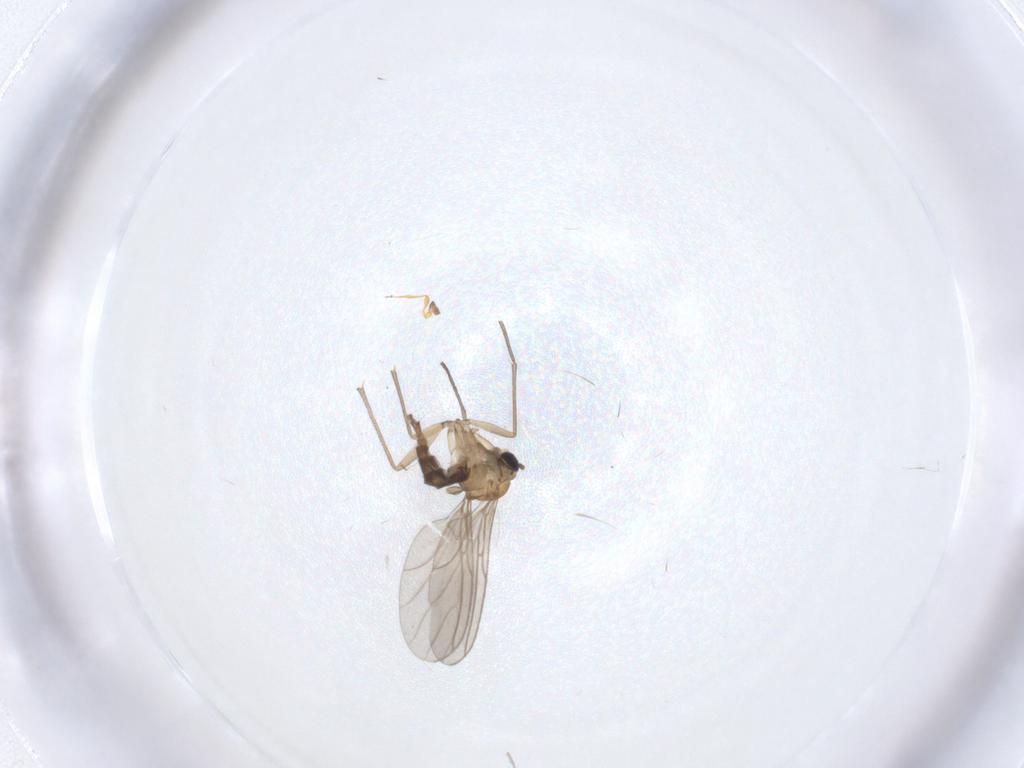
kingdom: Animalia
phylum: Arthropoda
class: Insecta
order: Diptera
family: Sciaridae
